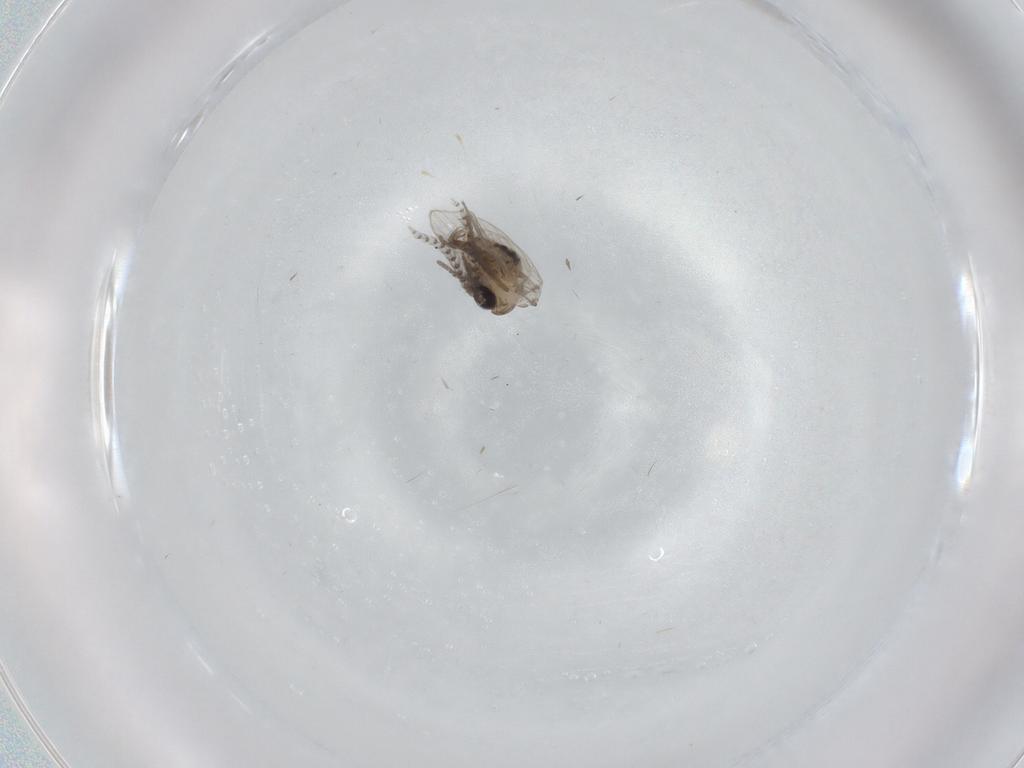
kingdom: Animalia
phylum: Arthropoda
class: Insecta
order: Diptera
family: Psychodidae
